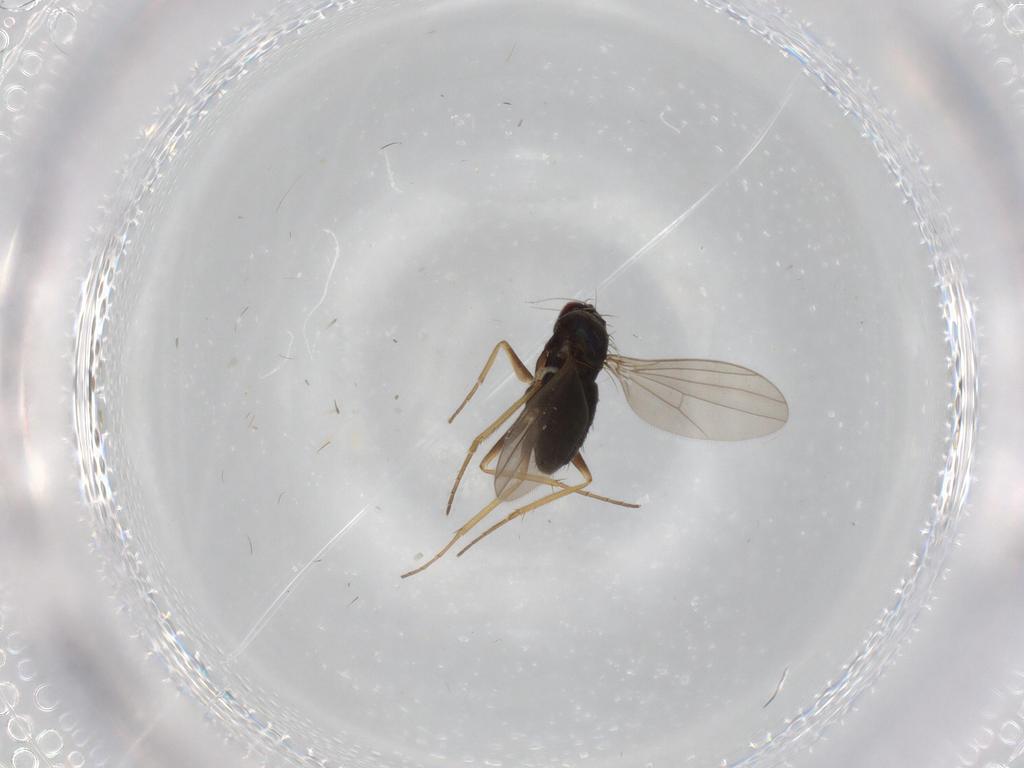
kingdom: Animalia
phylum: Arthropoda
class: Insecta
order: Diptera
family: Dolichopodidae
